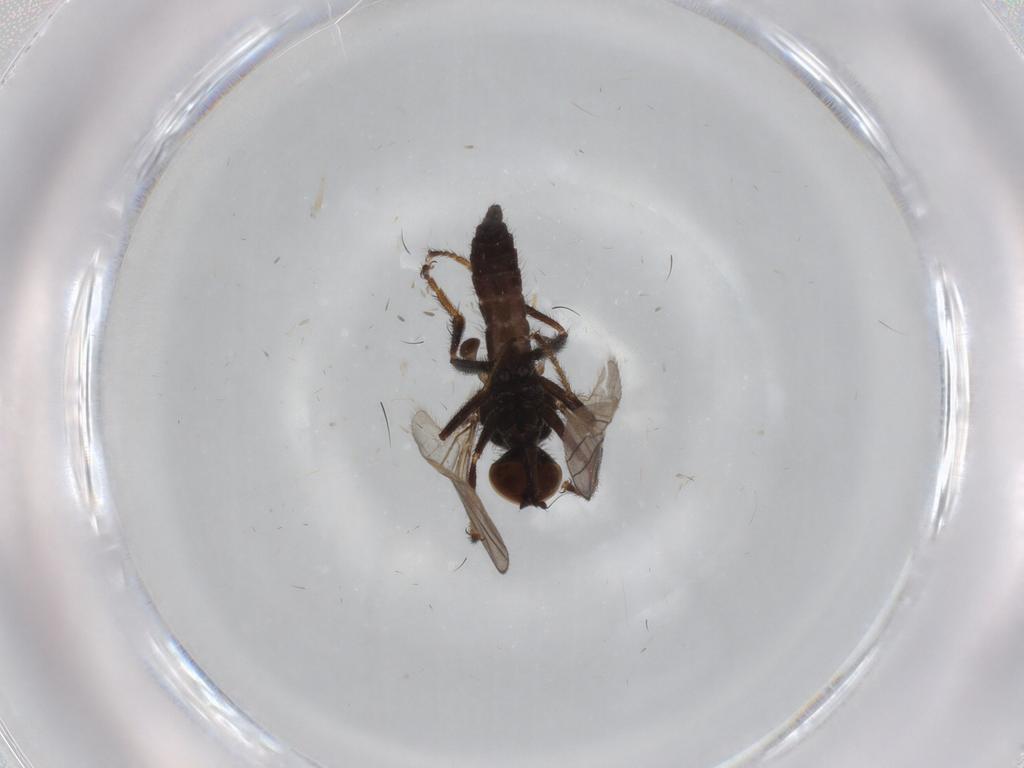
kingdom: Animalia
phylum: Arthropoda
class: Insecta
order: Diptera
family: Hybotidae
